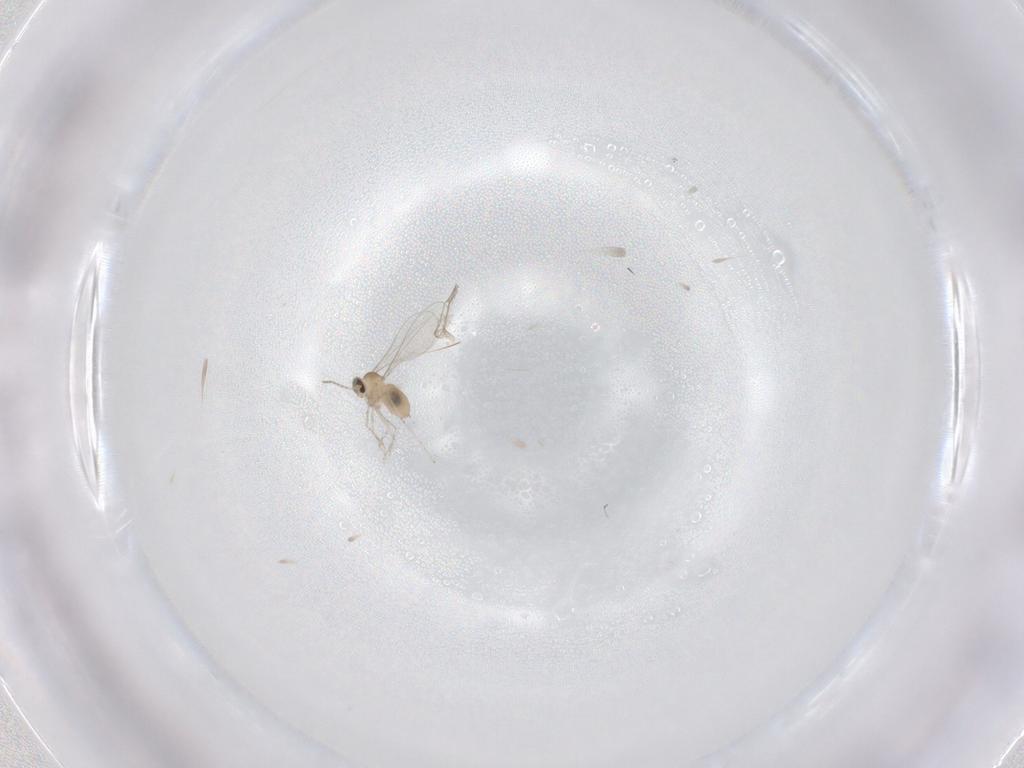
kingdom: Animalia
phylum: Arthropoda
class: Insecta
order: Diptera
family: Cecidomyiidae
